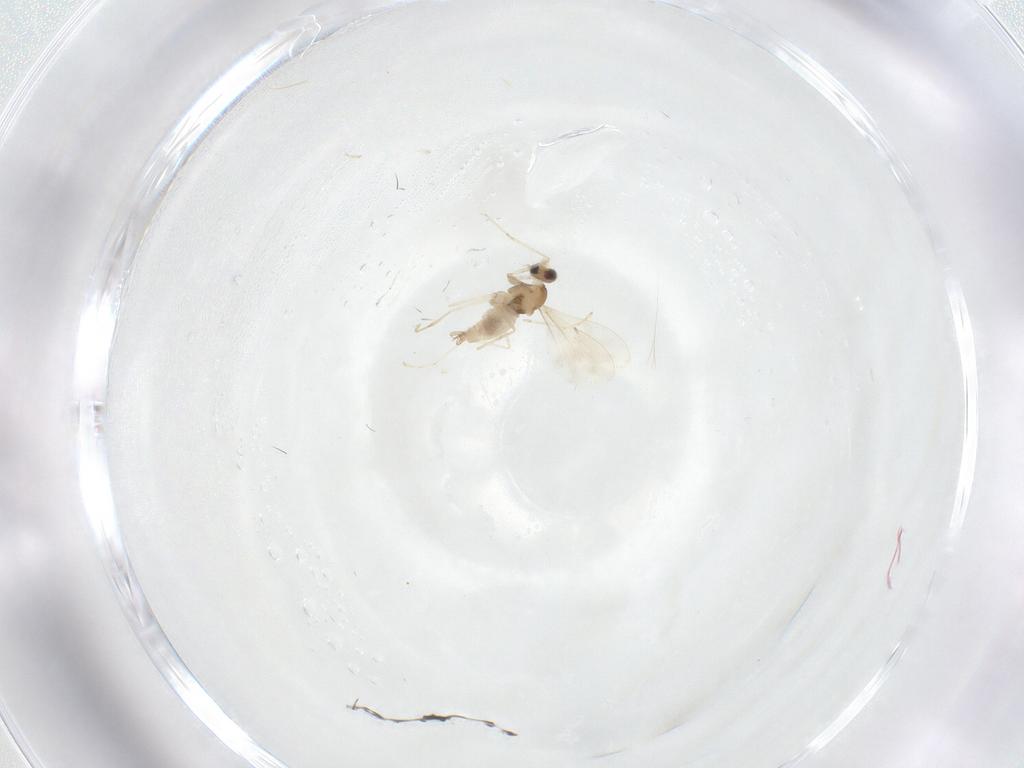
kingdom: Animalia
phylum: Arthropoda
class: Insecta
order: Diptera
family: Cecidomyiidae
